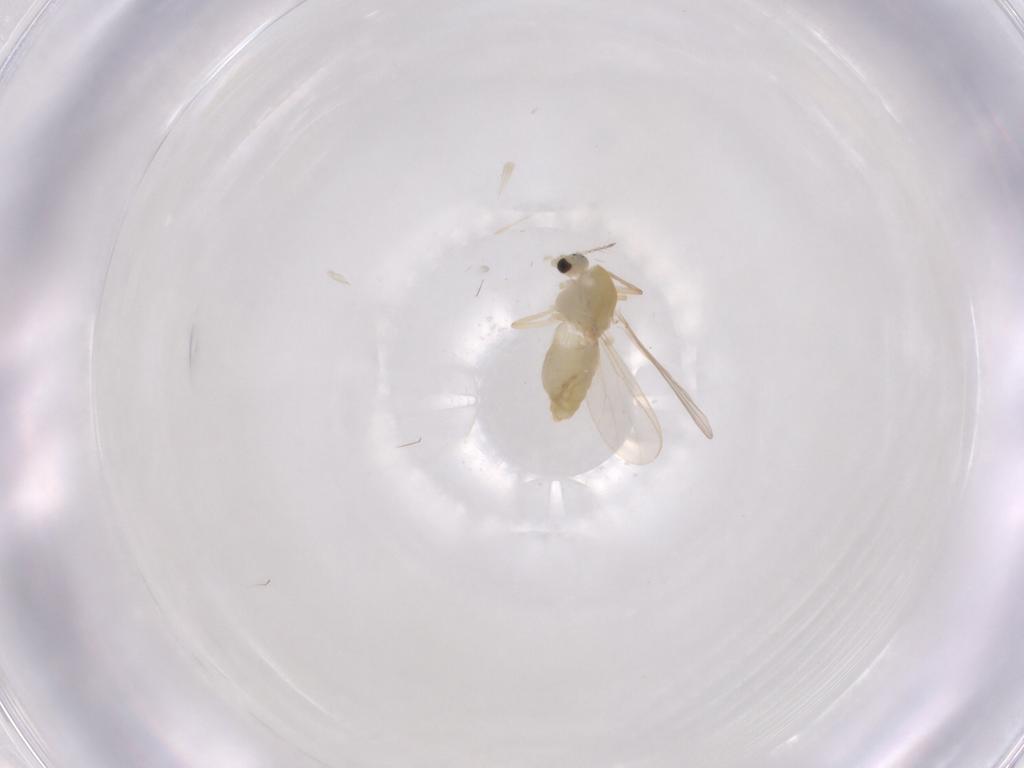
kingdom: Animalia
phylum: Arthropoda
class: Insecta
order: Diptera
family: Chironomidae
